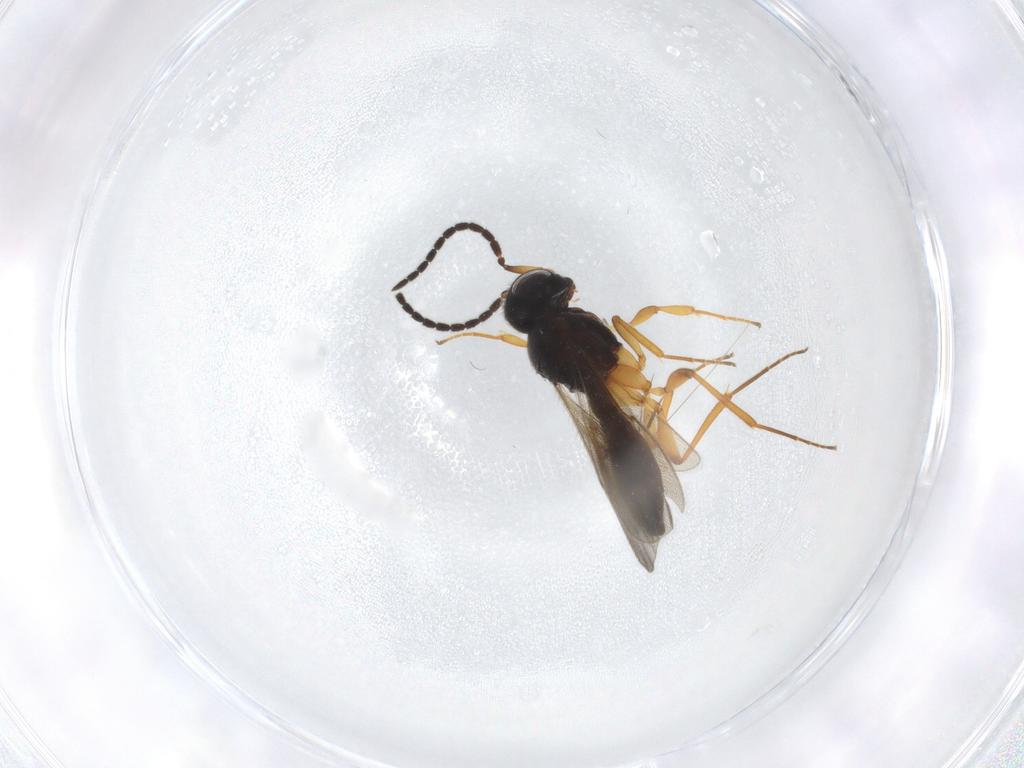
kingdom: Animalia
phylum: Arthropoda
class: Insecta
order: Hymenoptera
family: Scelionidae
